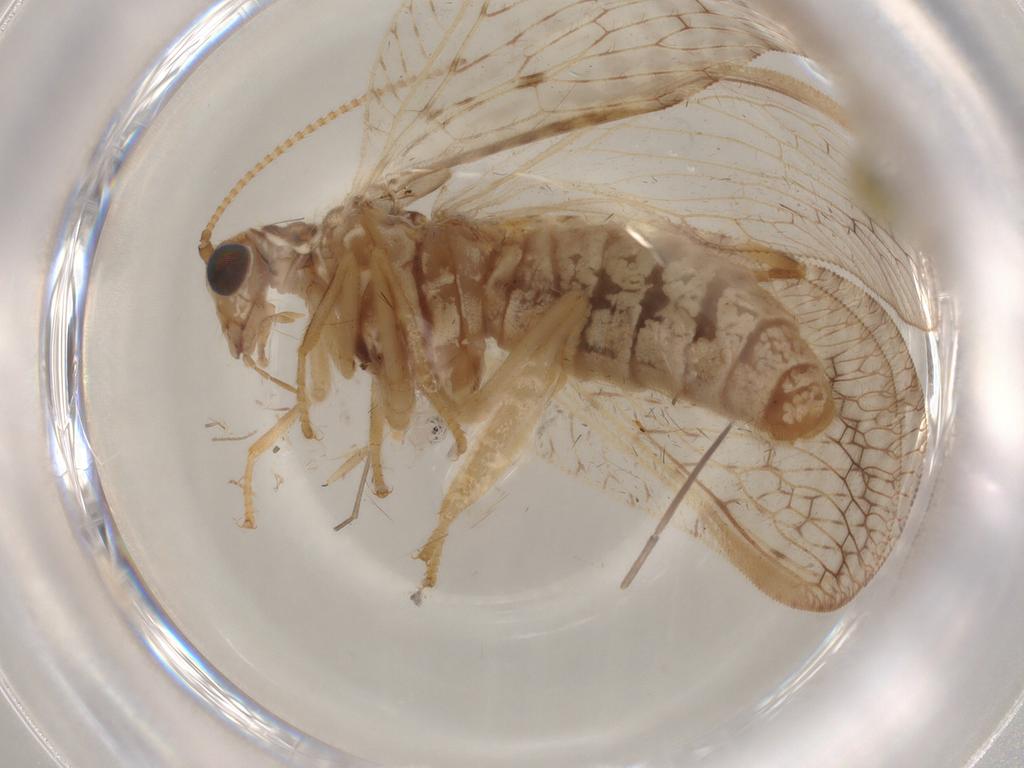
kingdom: Animalia
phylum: Arthropoda
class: Insecta
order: Neuroptera
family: Hemerobiidae
